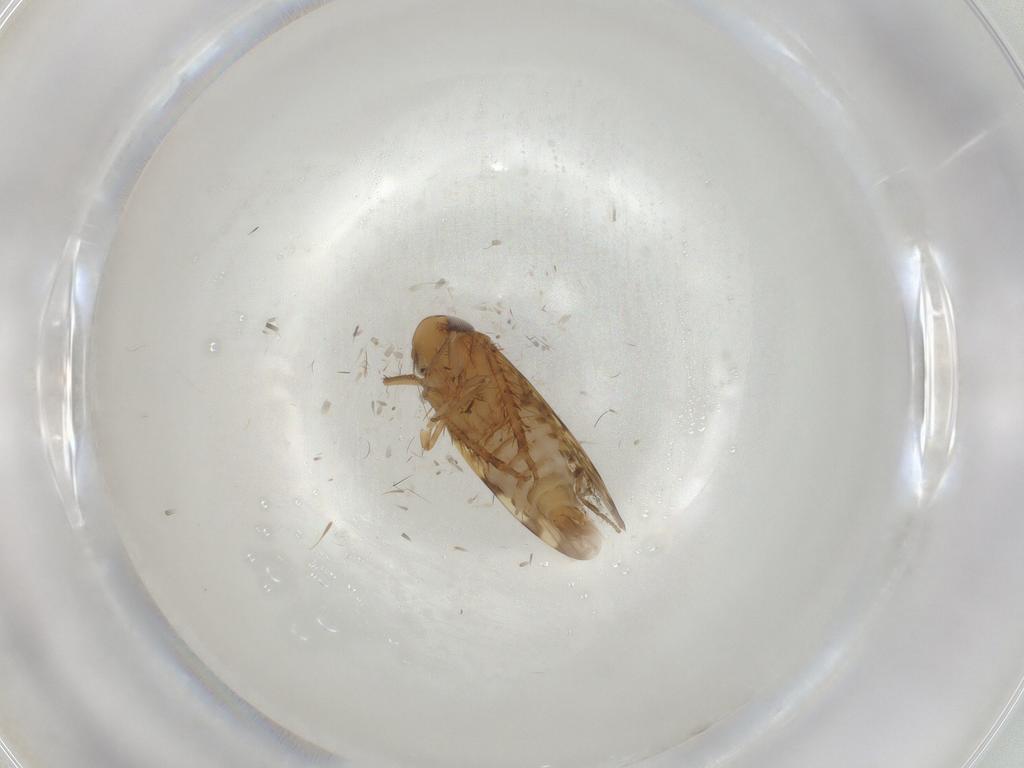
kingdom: Animalia
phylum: Arthropoda
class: Insecta
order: Hemiptera
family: Cicadellidae
